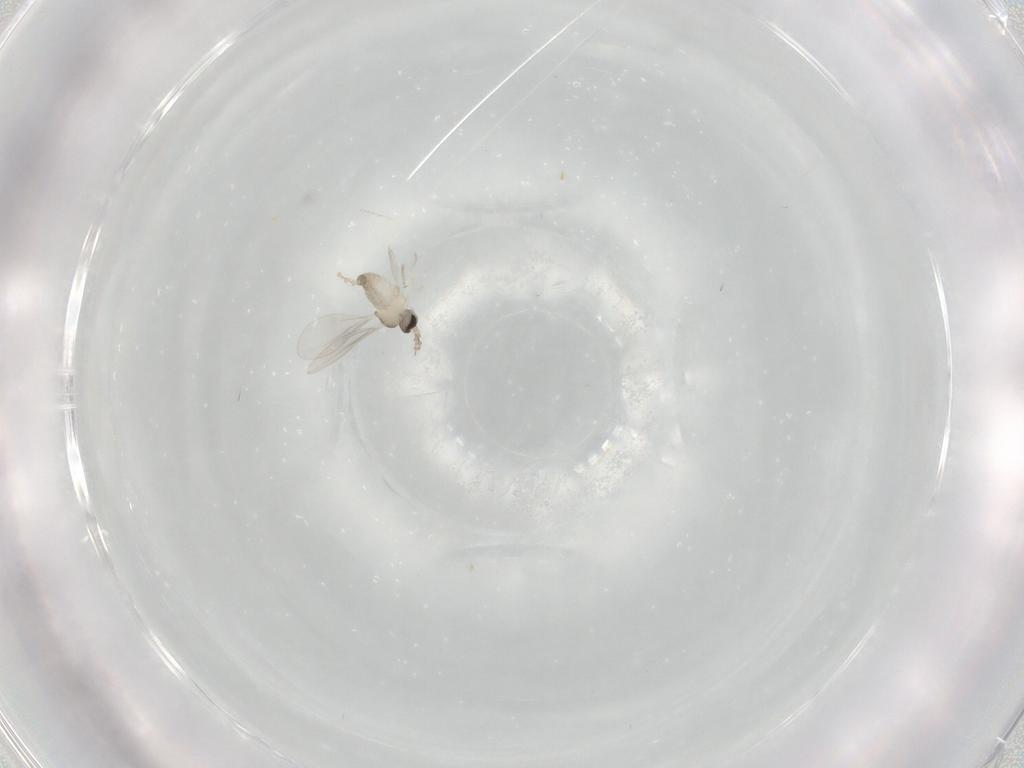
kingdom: Animalia
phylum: Arthropoda
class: Insecta
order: Diptera
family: Cecidomyiidae
